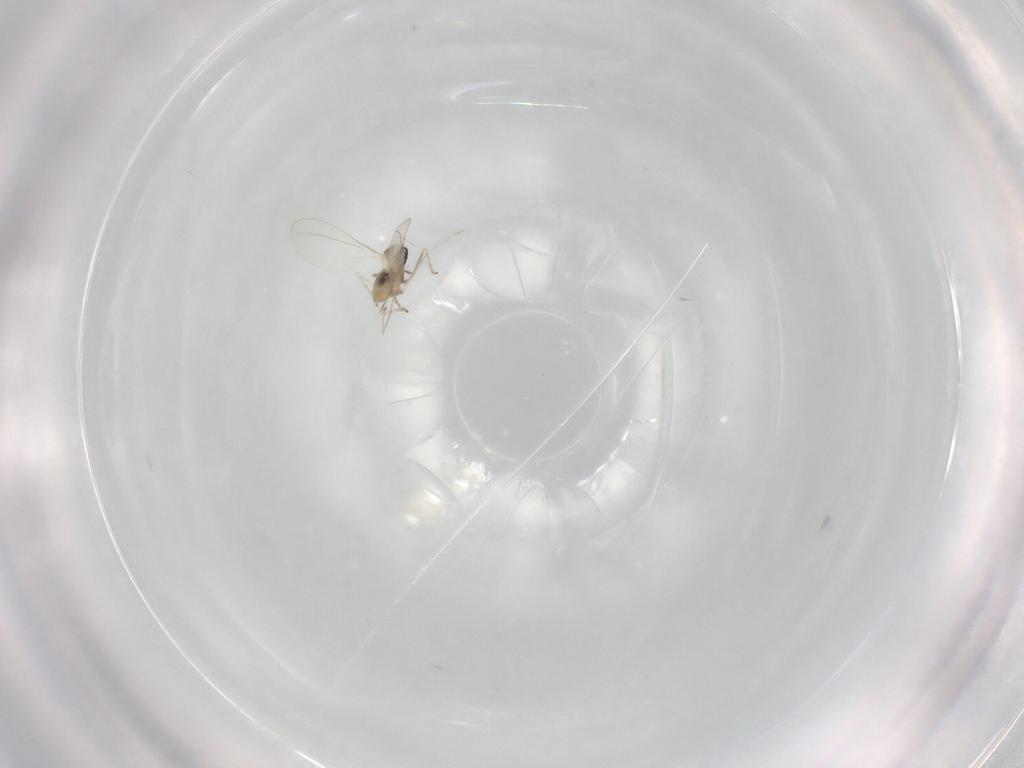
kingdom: Animalia
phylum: Arthropoda
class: Insecta
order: Diptera
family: Cecidomyiidae
